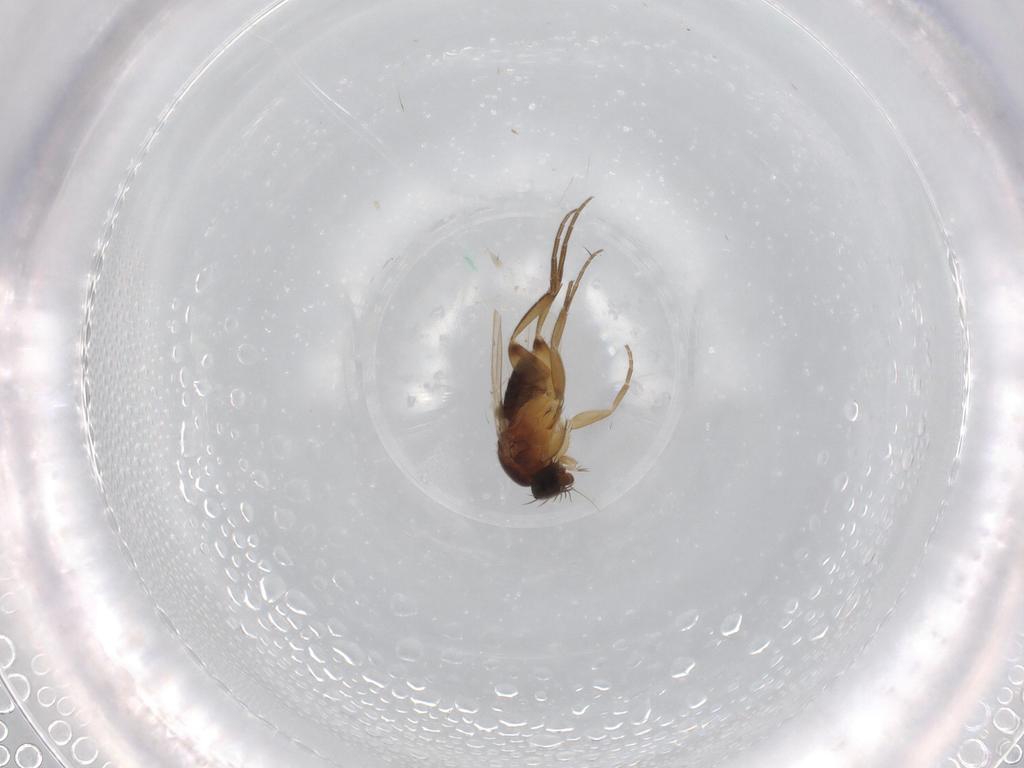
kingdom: Animalia
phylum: Arthropoda
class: Insecta
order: Diptera
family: Phoridae
